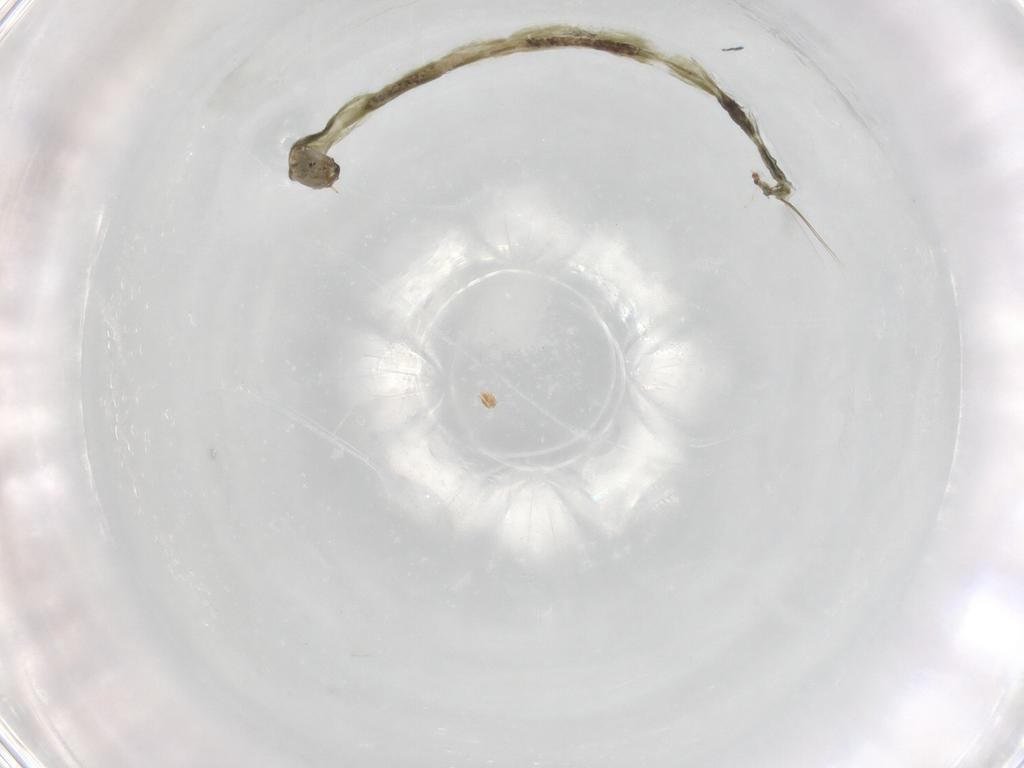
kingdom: Animalia
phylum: Arthropoda
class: Insecta
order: Diptera
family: Chironomidae
